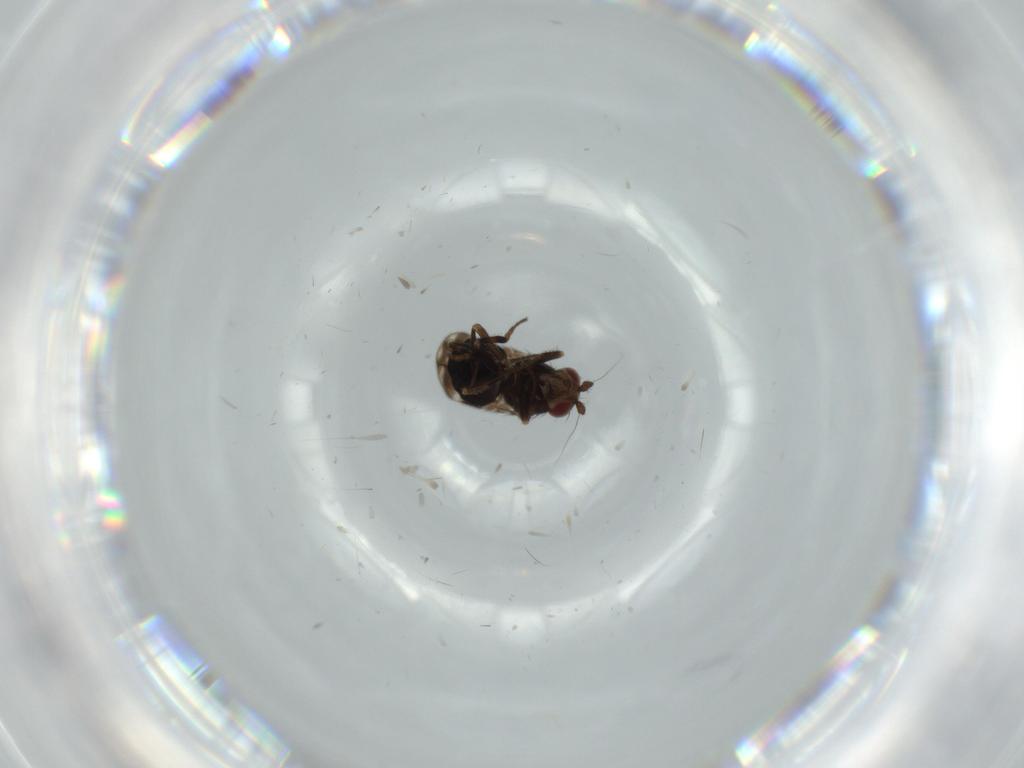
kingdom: Animalia
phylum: Arthropoda
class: Insecta
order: Diptera
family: Sphaeroceridae
